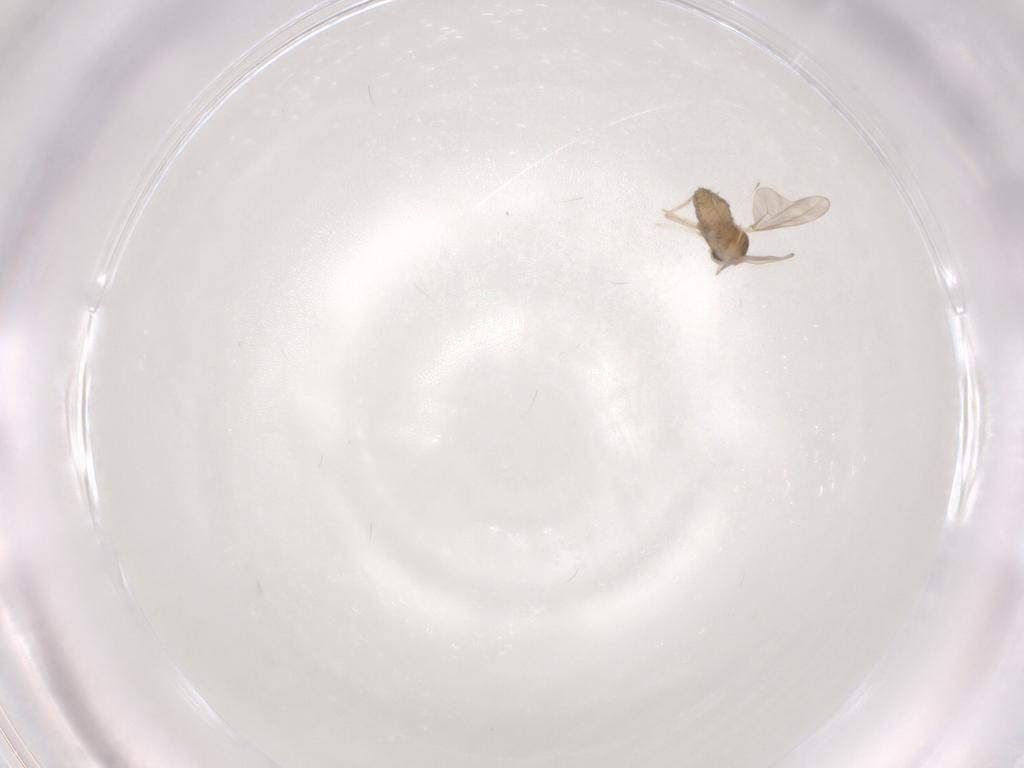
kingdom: Animalia
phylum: Arthropoda
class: Insecta
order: Diptera
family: Cecidomyiidae
